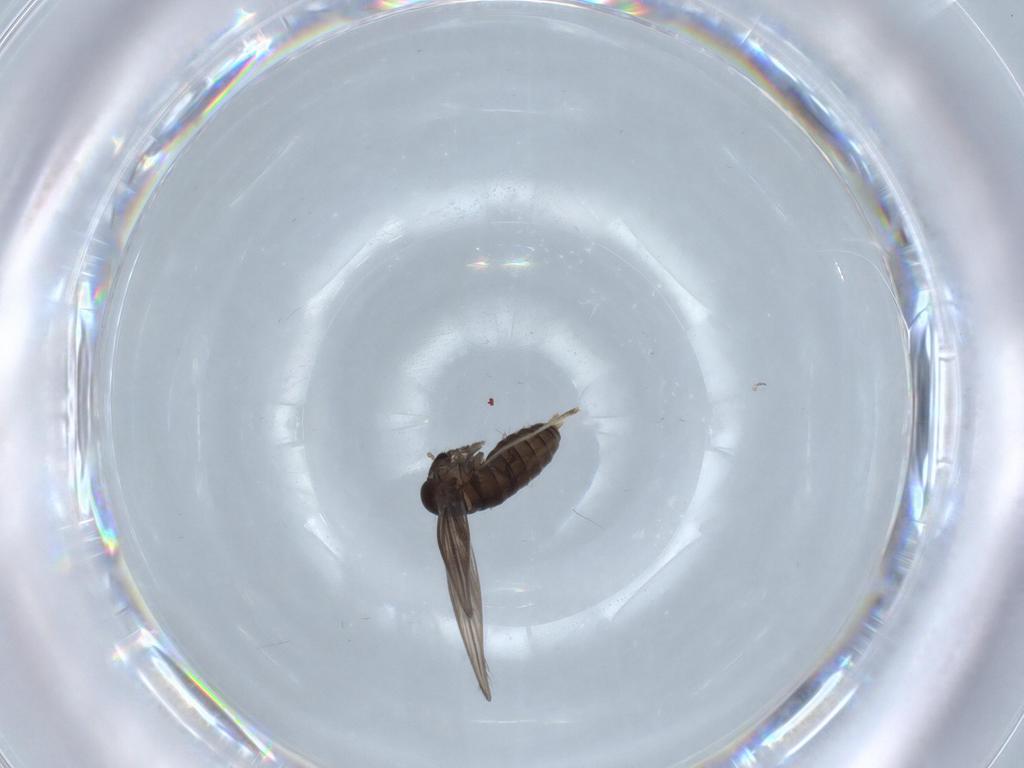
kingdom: Animalia
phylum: Arthropoda
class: Insecta
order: Diptera
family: Psychodidae
